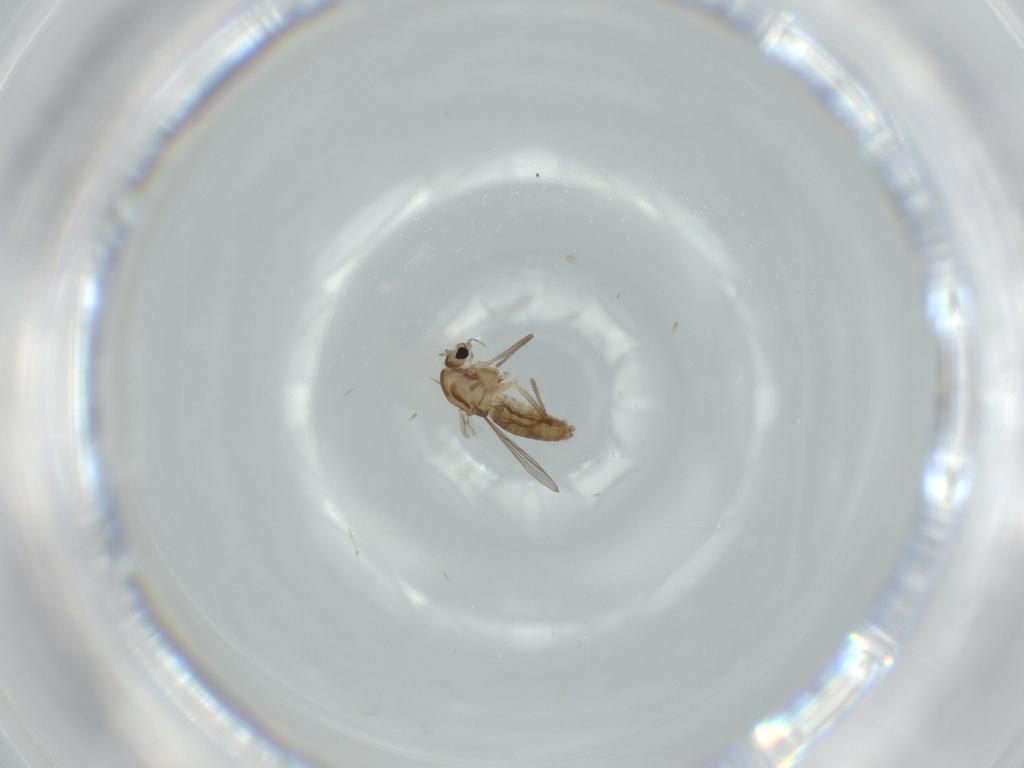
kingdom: Animalia
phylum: Arthropoda
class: Insecta
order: Diptera
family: Chironomidae
